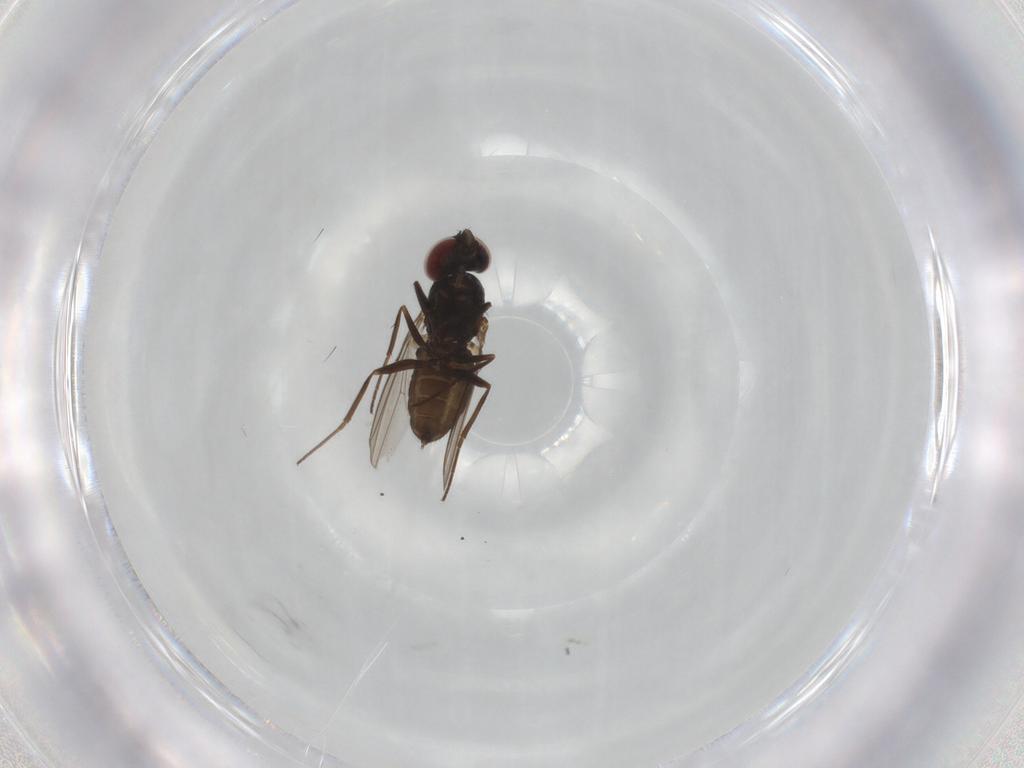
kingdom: Animalia
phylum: Arthropoda
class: Insecta
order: Diptera
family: Dolichopodidae
